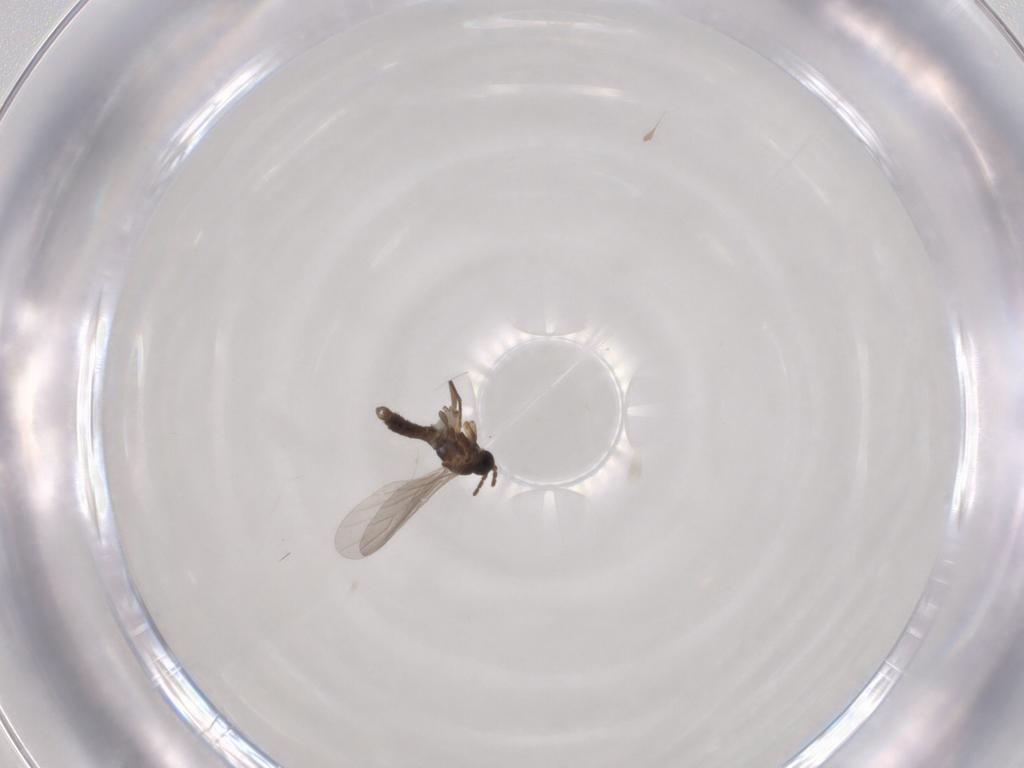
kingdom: Animalia
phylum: Arthropoda
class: Insecta
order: Diptera
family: Sciaridae
